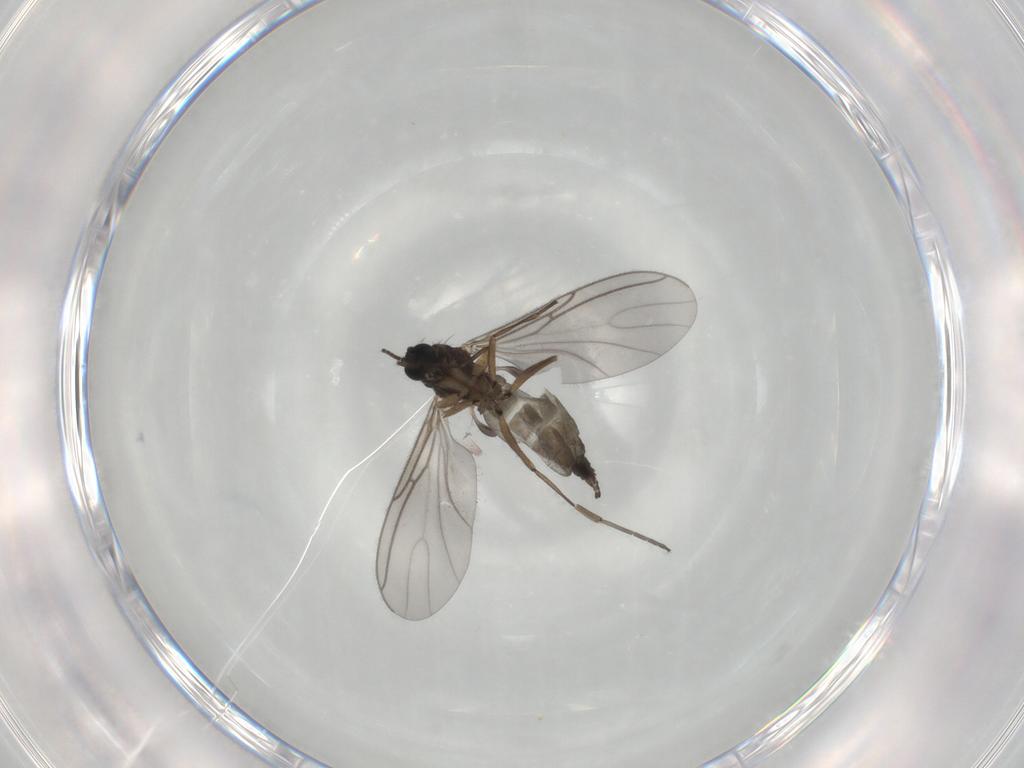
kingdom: Animalia
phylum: Arthropoda
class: Insecta
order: Diptera
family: Sciaridae
